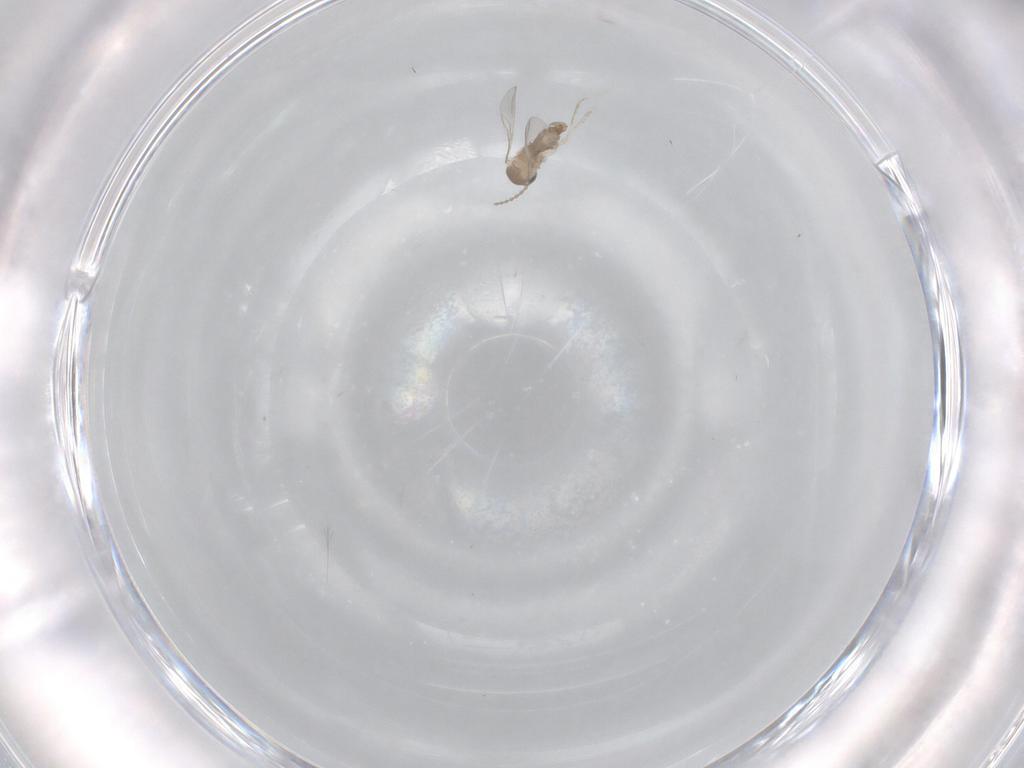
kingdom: Animalia
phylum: Arthropoda
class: Insecta
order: Diptera
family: Cecidomyiidae
